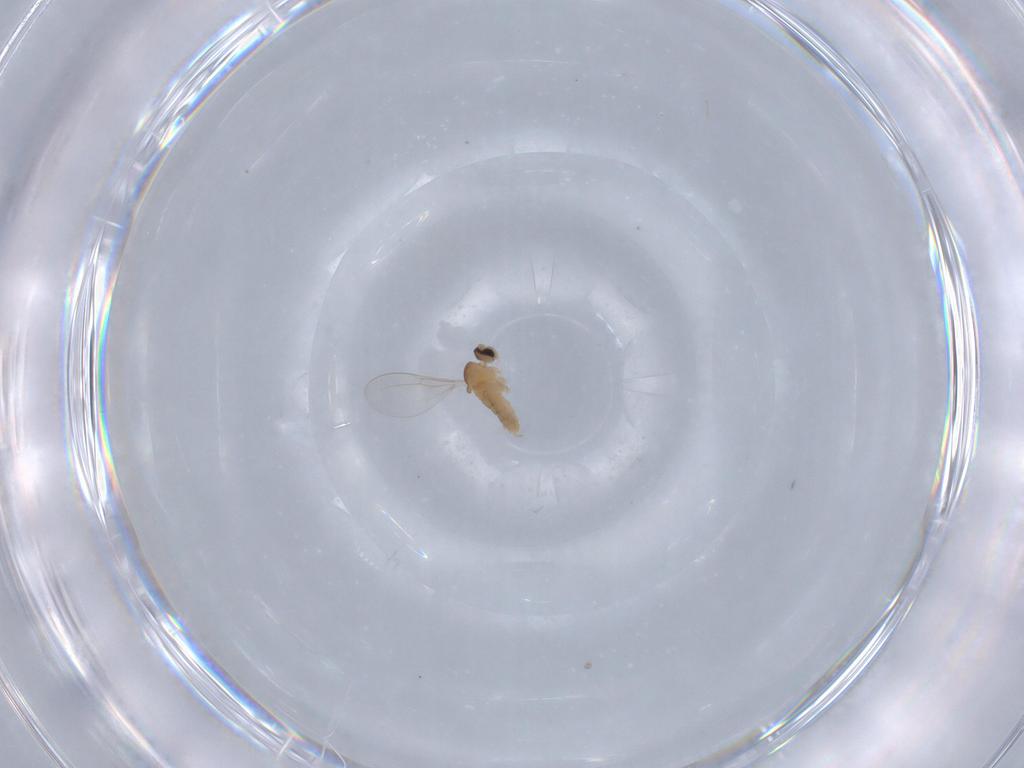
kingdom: Animalia
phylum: Arthropoda
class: Insecta
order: Diptera
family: Cecidomyiidae
